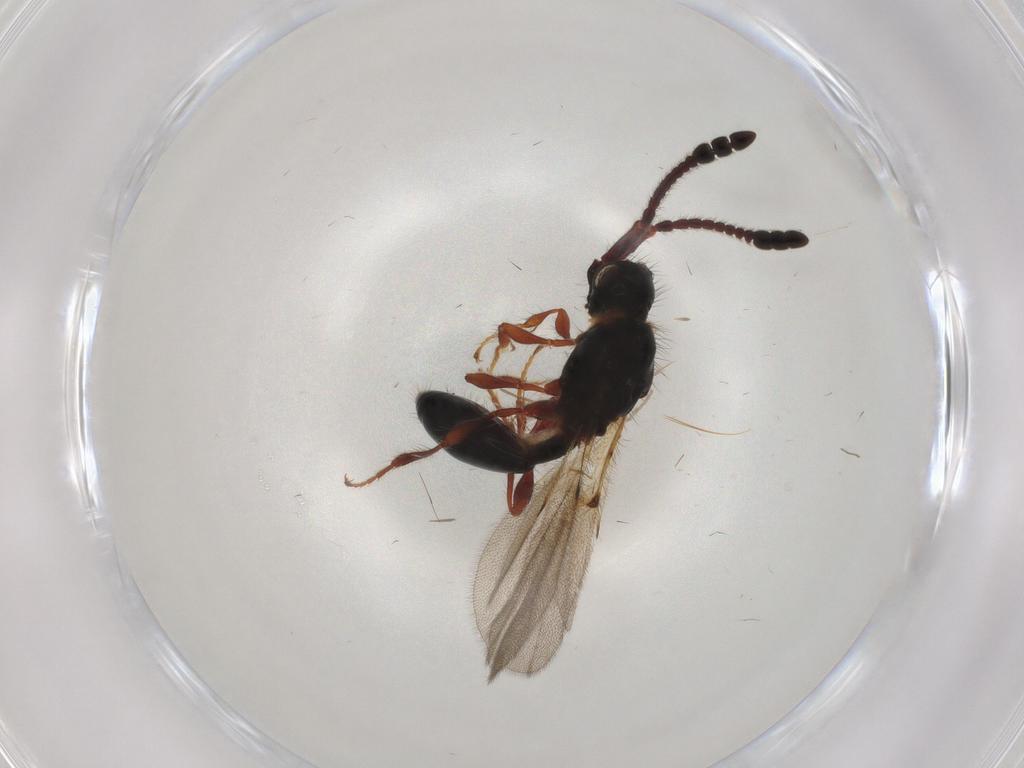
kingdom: Animalia
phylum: Arthropoda
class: Insecta
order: Hymenoptera
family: Diapriidae
